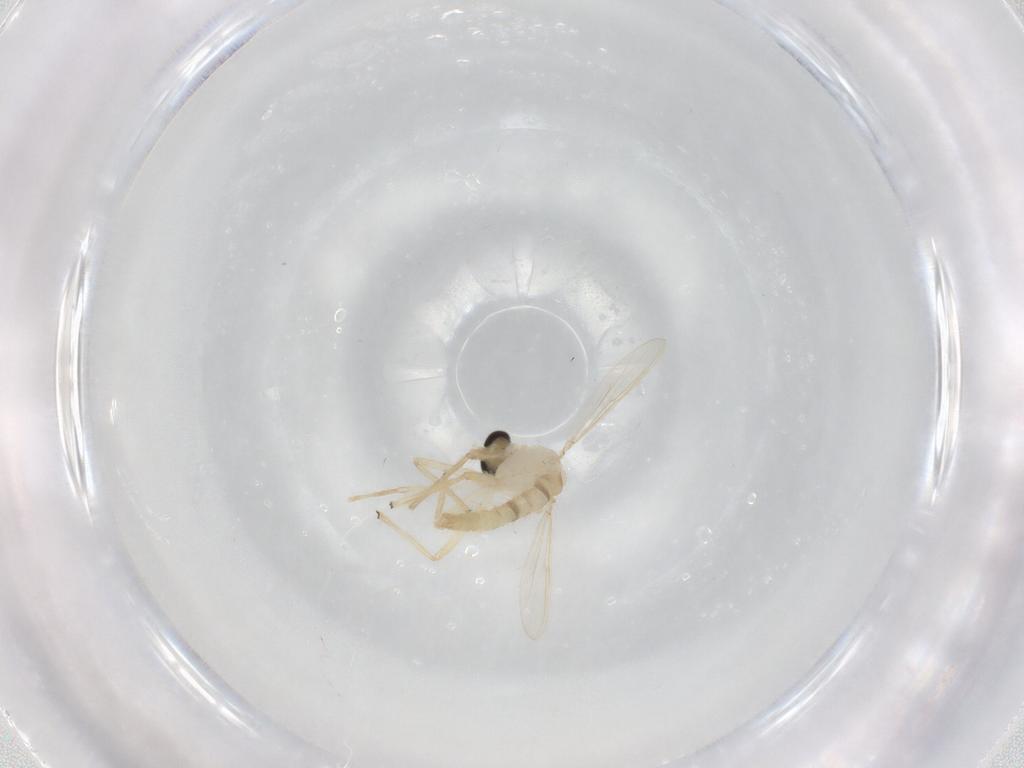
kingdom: Animalia
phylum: Arthropoda
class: Insecta
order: Diptera
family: Chironomidae
